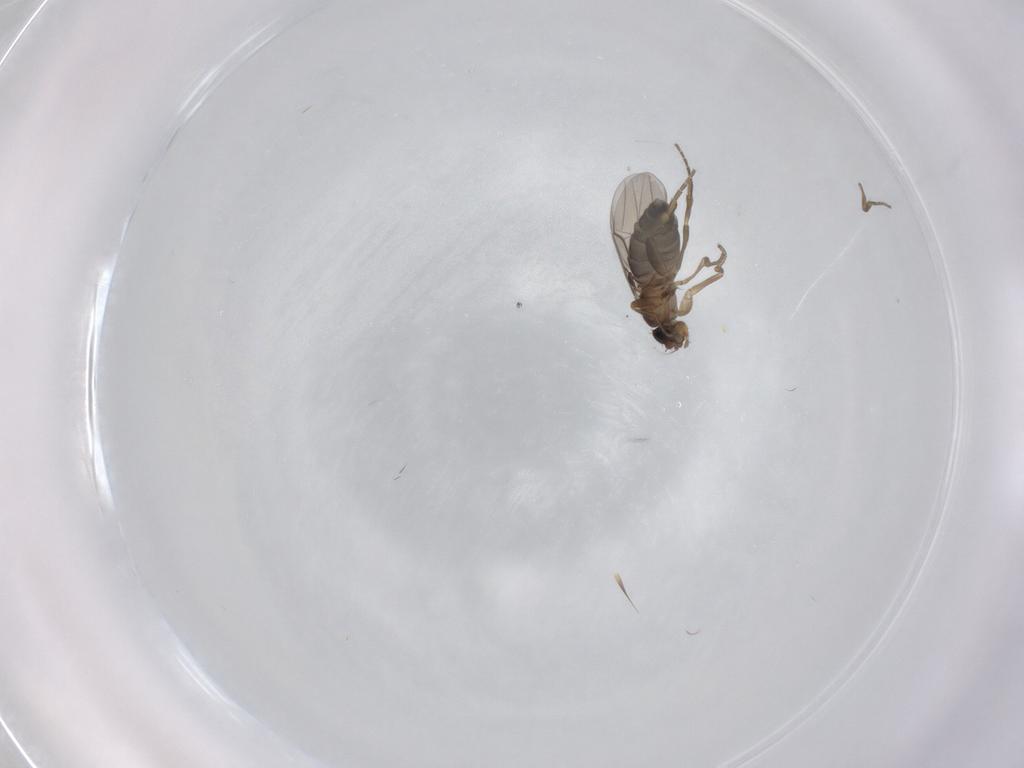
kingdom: Animalia
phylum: Arthropoda
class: Insecta
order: Diptera
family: Phoridae
